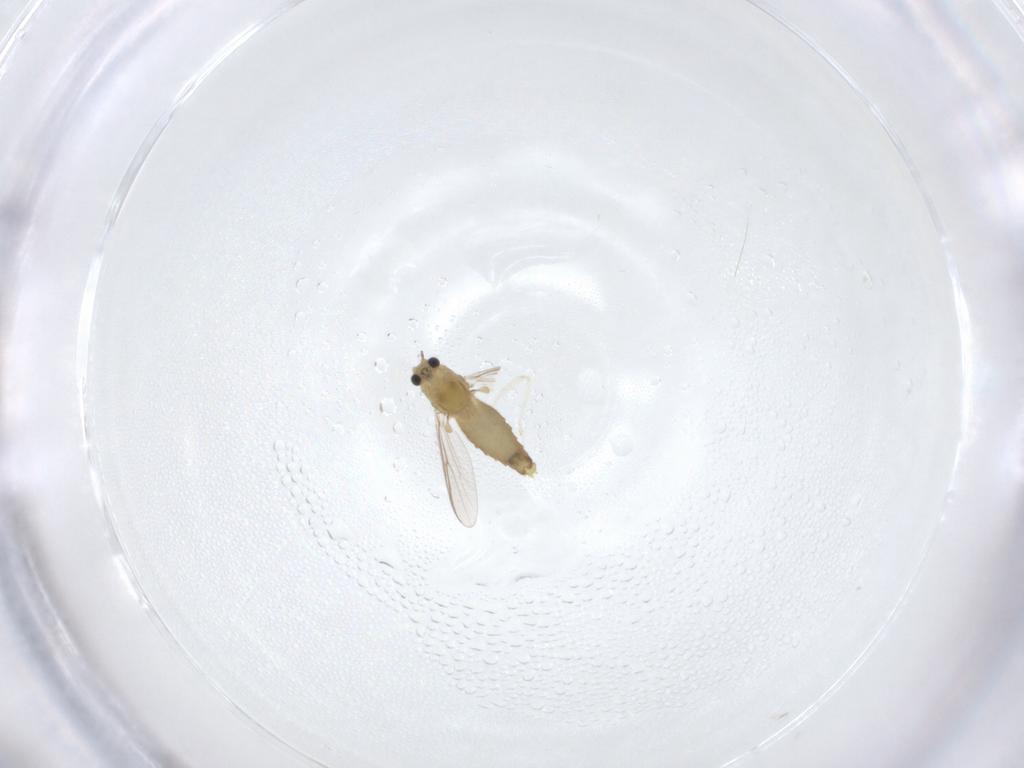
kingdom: Animalia
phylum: Arthropoda
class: Insecta
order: Diptera
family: Chironomidae
